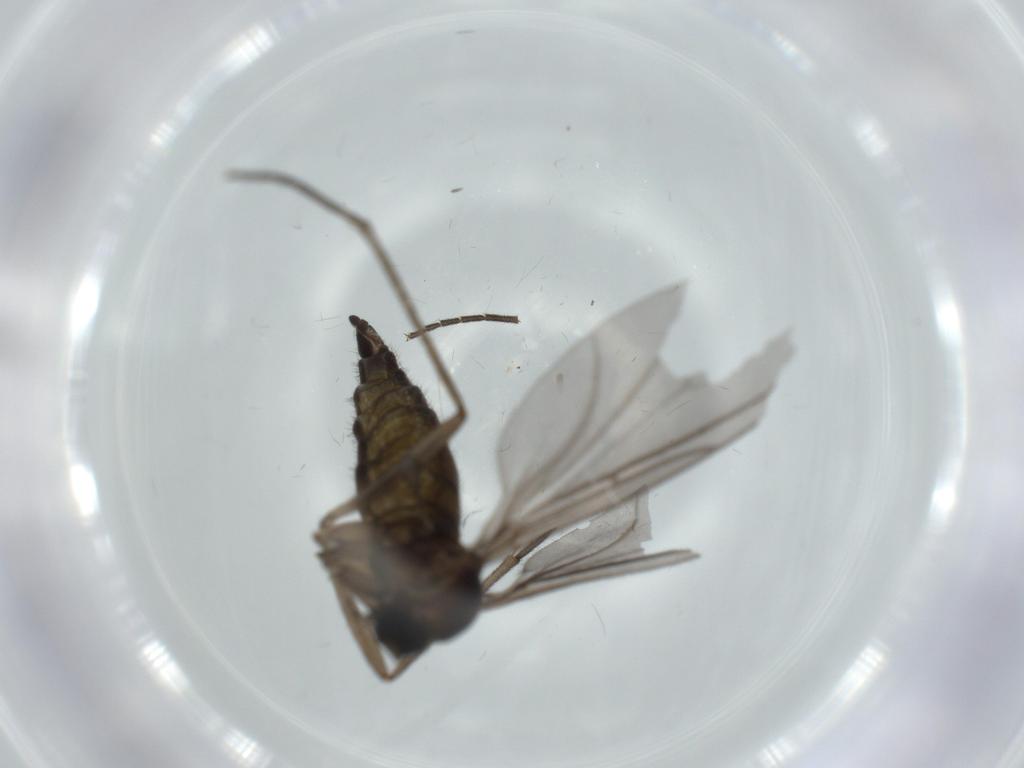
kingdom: Animalia
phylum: Arthropoda
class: Insecta
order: Diptera
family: Sciaridae
